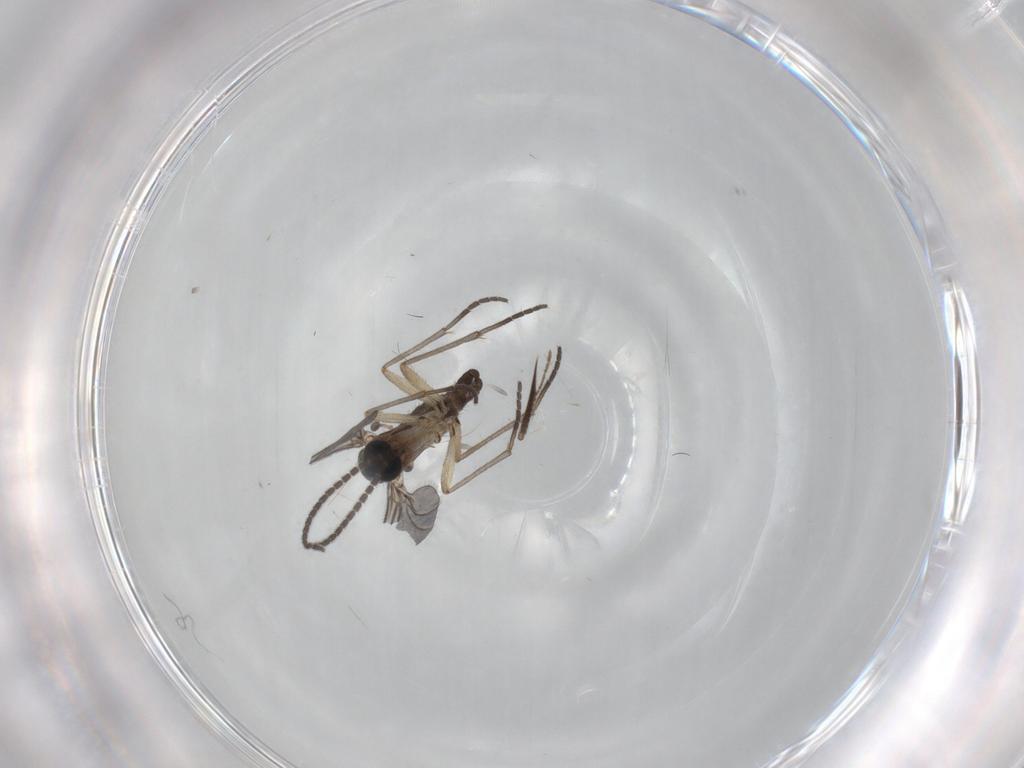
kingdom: Animalia
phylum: Arthropoda
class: Insecta
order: Diptera
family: Sciaridae
